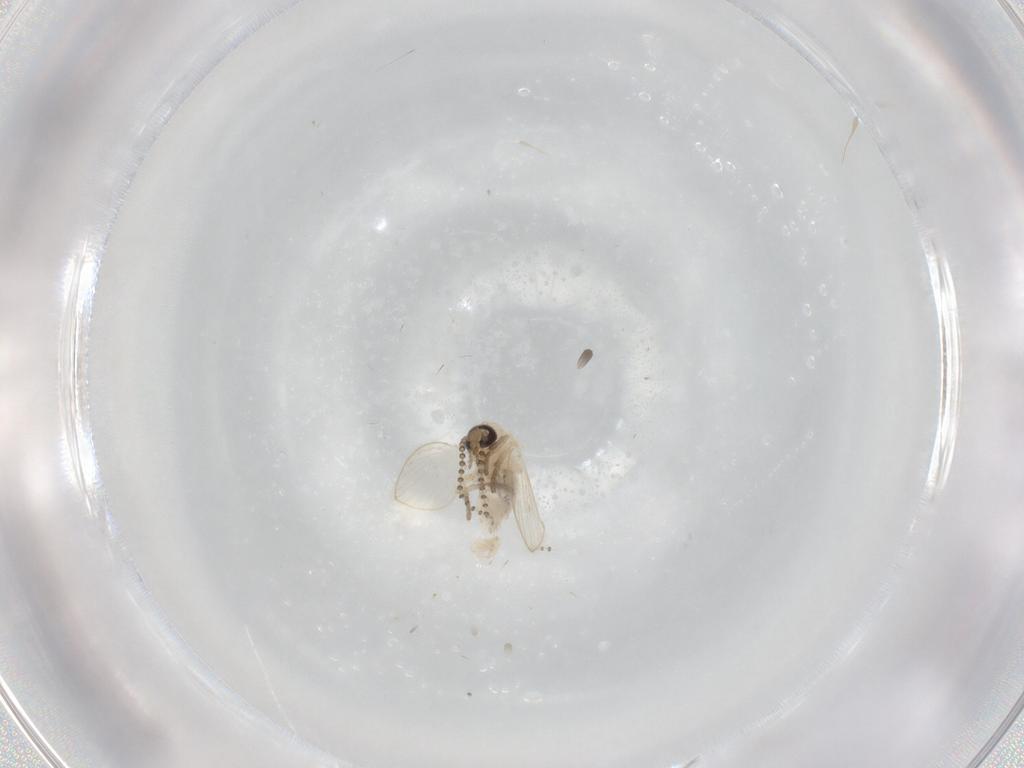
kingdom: Animalia
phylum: Arthropoda
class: Insecta
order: Diptera
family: Psychodidae
